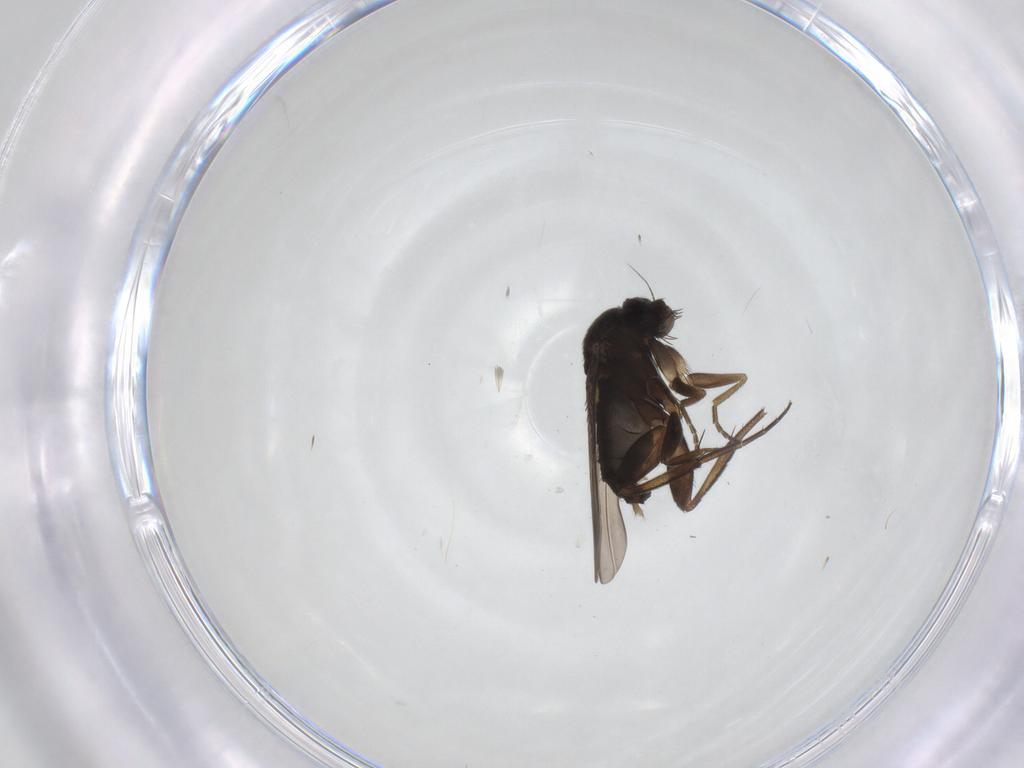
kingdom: Animalia
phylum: Arthropoda
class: Insecta
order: Diptera
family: Phoridae
